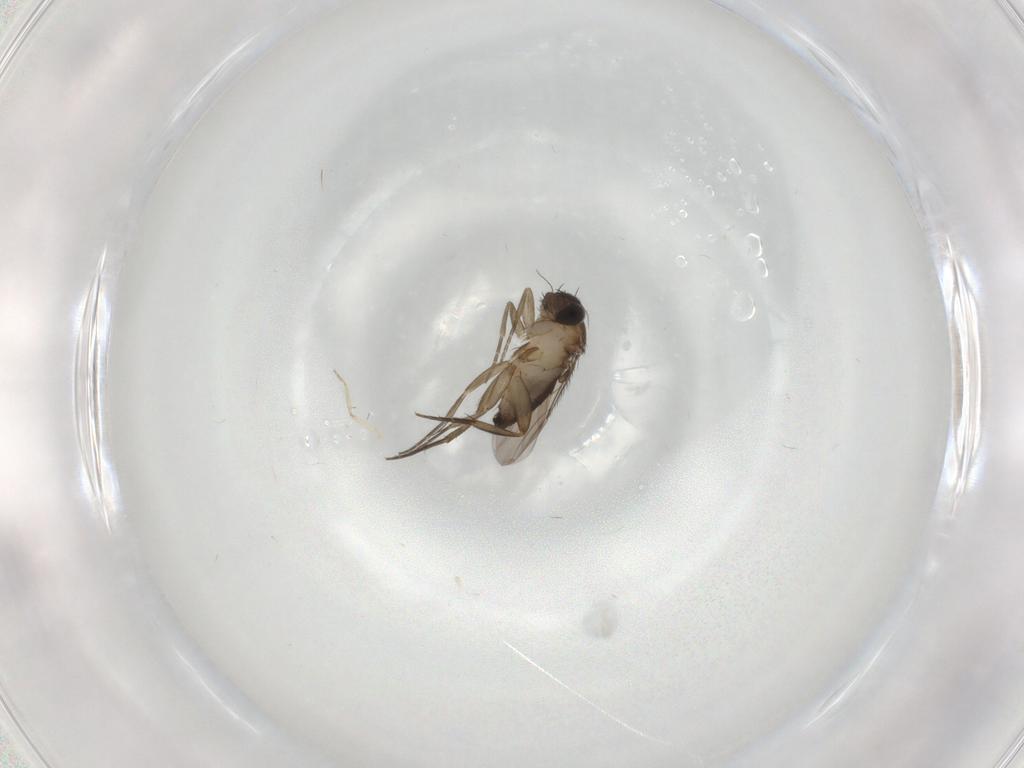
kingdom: Animalia
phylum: Arthropoda
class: Insecta
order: Diptera
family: Phoridae
